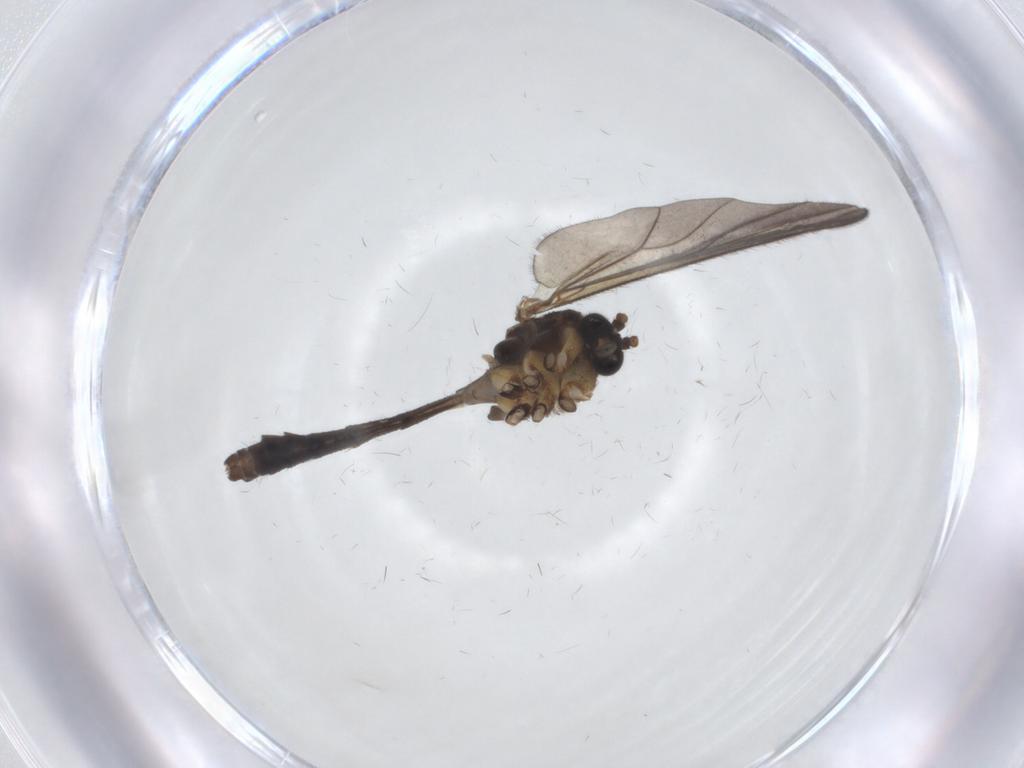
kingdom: Animalia
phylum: Arthropoda
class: Insecta
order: Diptera
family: Mycetophilidae
